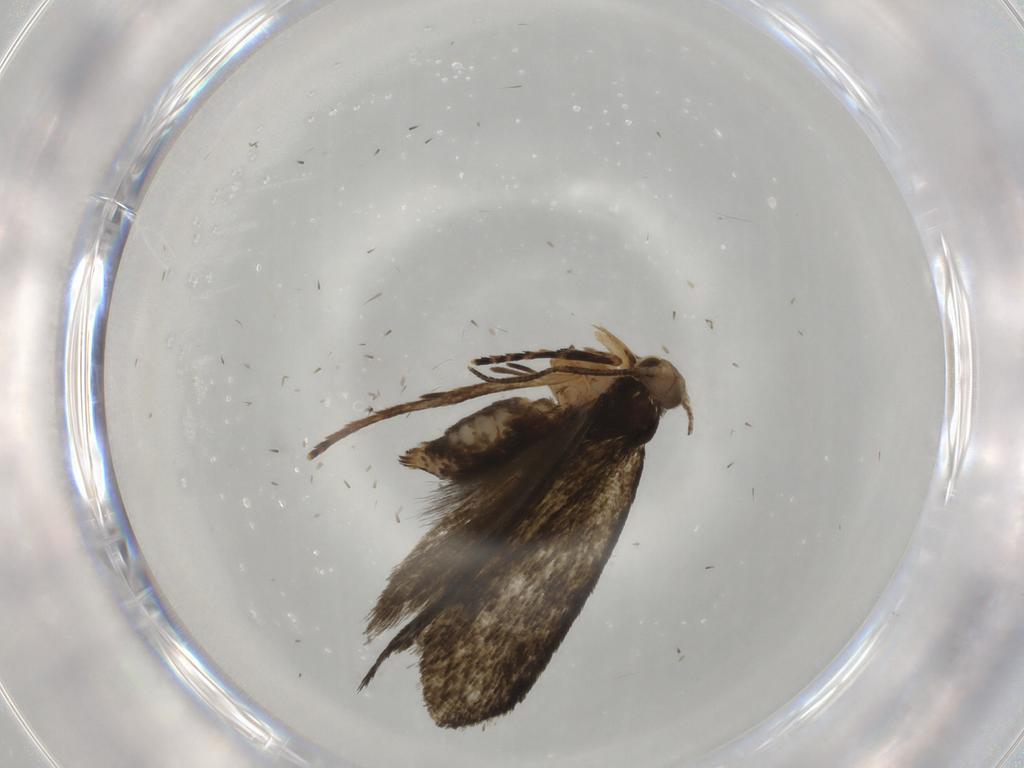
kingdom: Animalia
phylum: Arthropoda
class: Insecta
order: Lepidoptera
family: Crambidae
